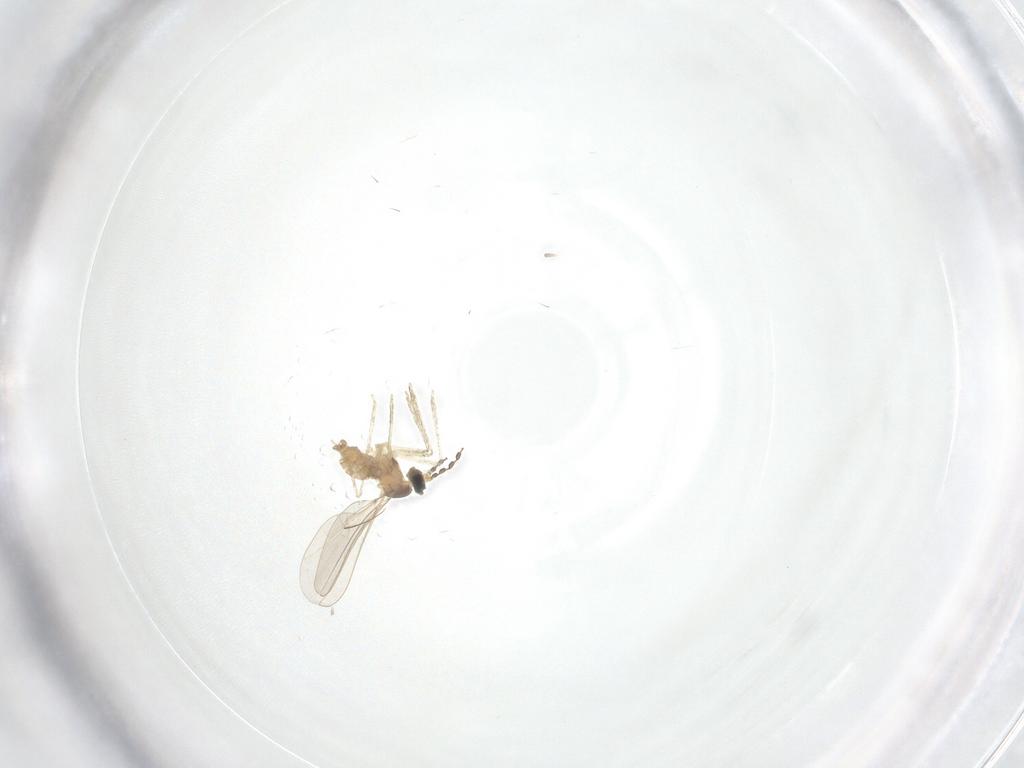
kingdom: Animalia
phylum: Arthropoda
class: Insecta
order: Diptera
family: Cecidomyiidae
